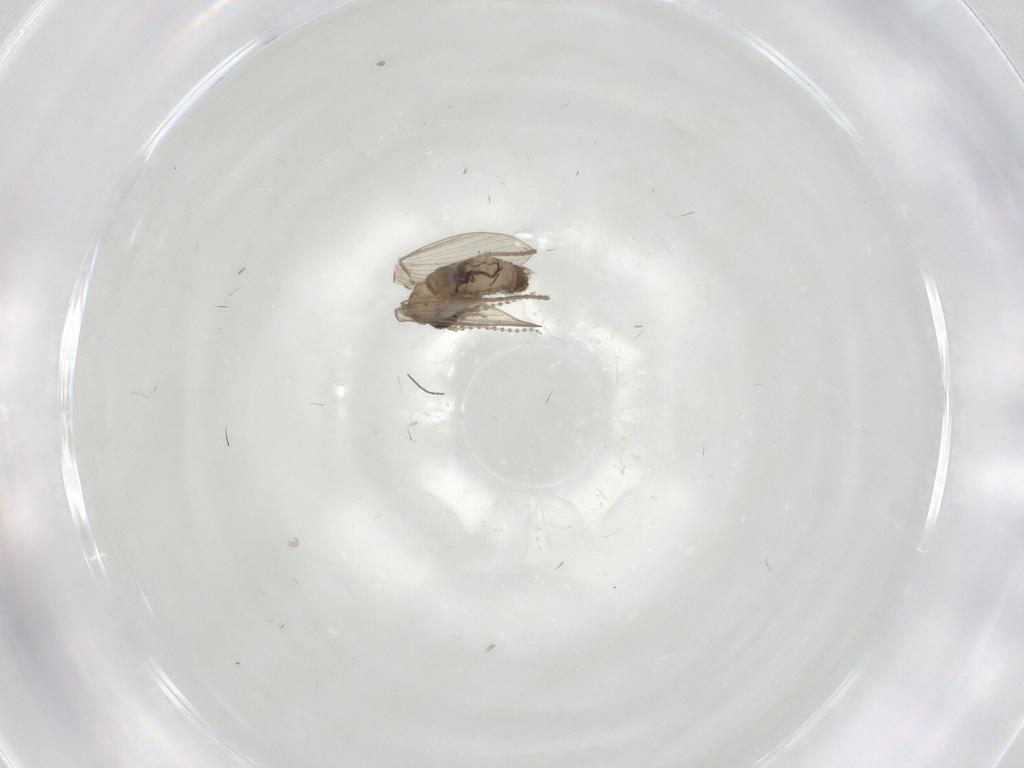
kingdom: Animalia
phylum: Arthropoda
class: Insecta
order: Diptera
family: Psychodidae
